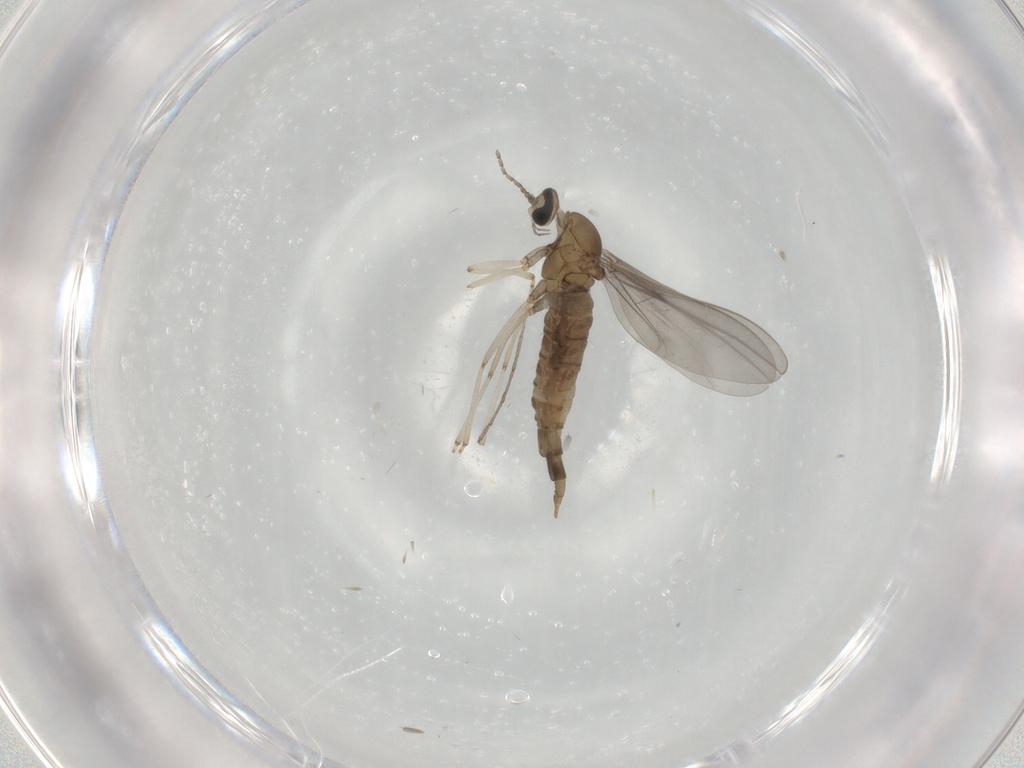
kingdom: Animalia
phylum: Arthropoda
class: Insecta
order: Diptera
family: Cecidomyiidae
